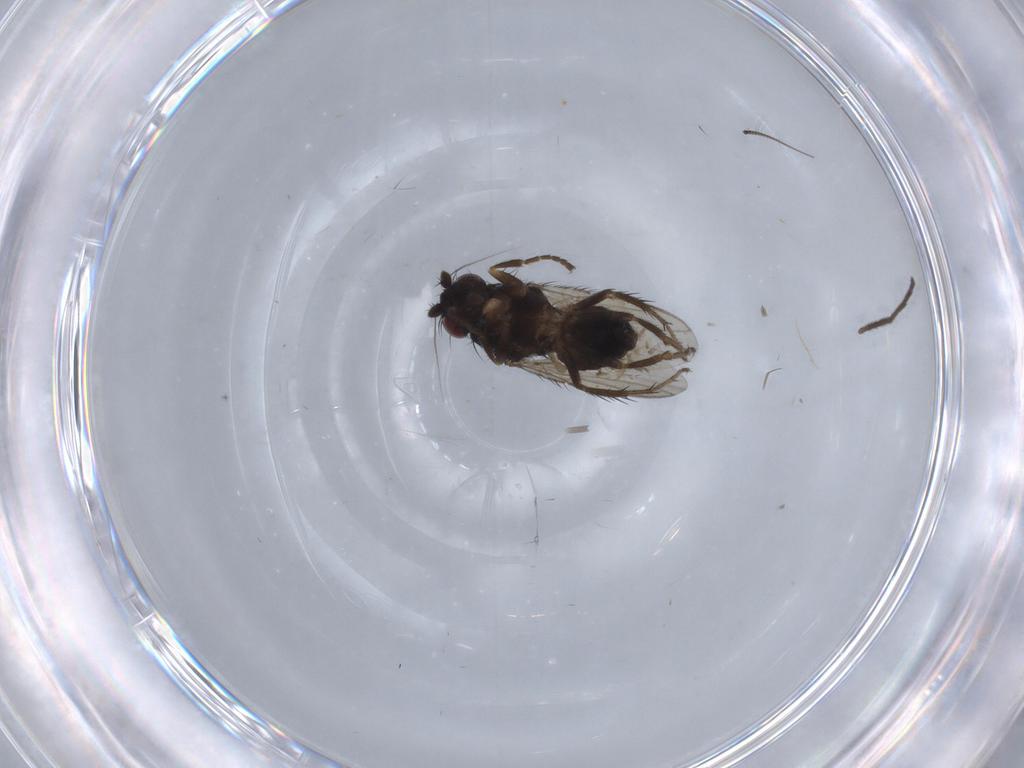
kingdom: Animalia
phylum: Arthropoda
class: Insecta
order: Diptera
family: Chironomidae
